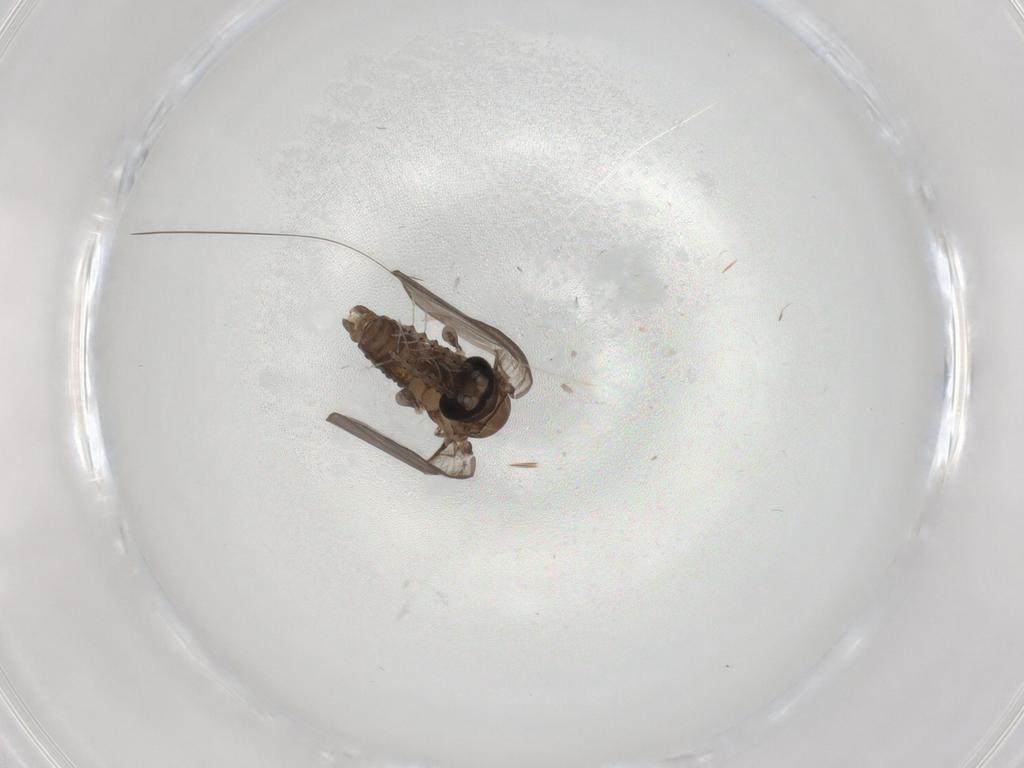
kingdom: Animalia
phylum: Arthropoda
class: Insecta
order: Diptera
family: Psychodidae
